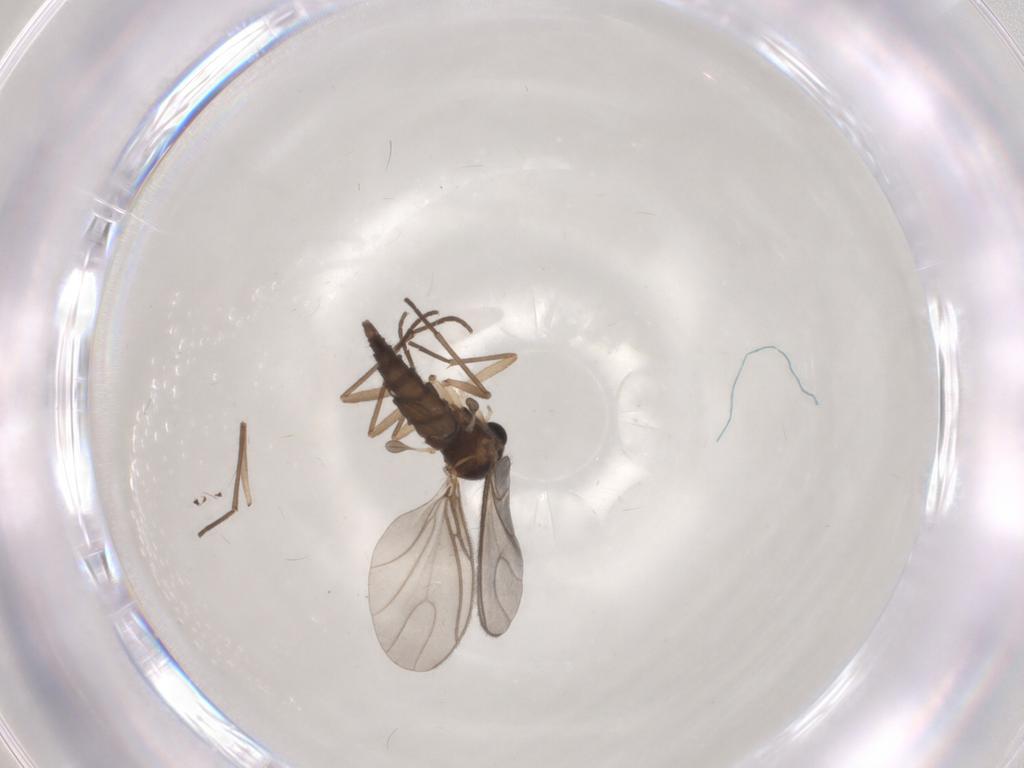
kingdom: Animalia
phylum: Arthropoda
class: Insecta
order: Diptera
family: Sciaridae
